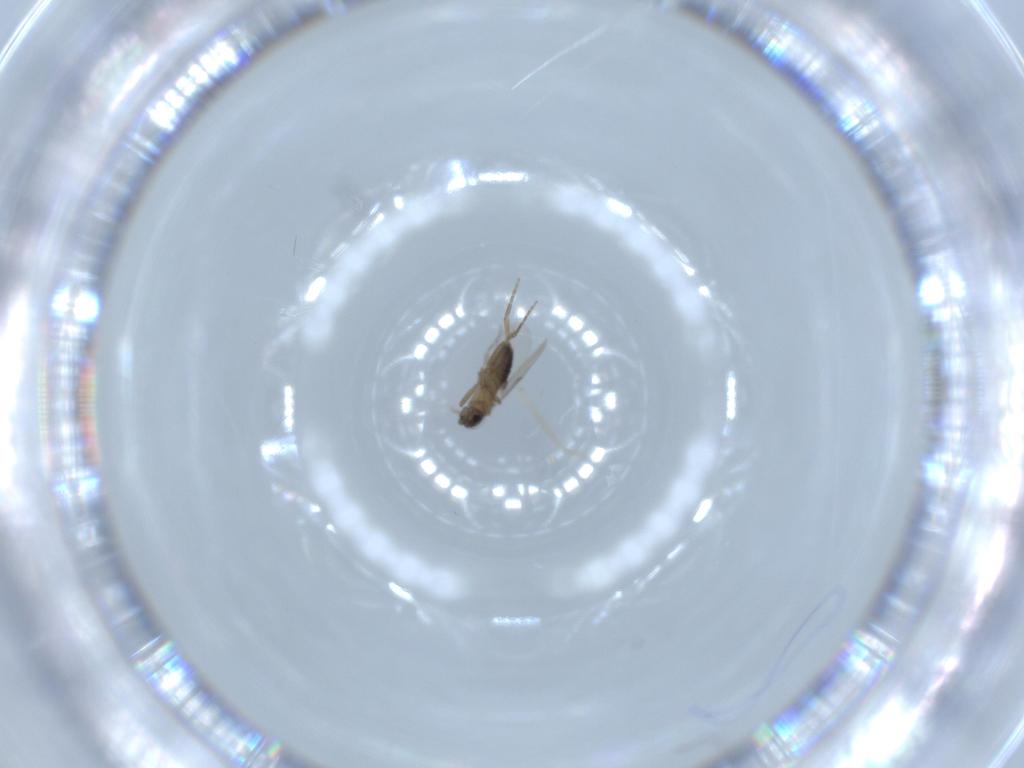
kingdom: Animalia
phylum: Arthropoda
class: Insecta
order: Diptera
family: Phoridae
